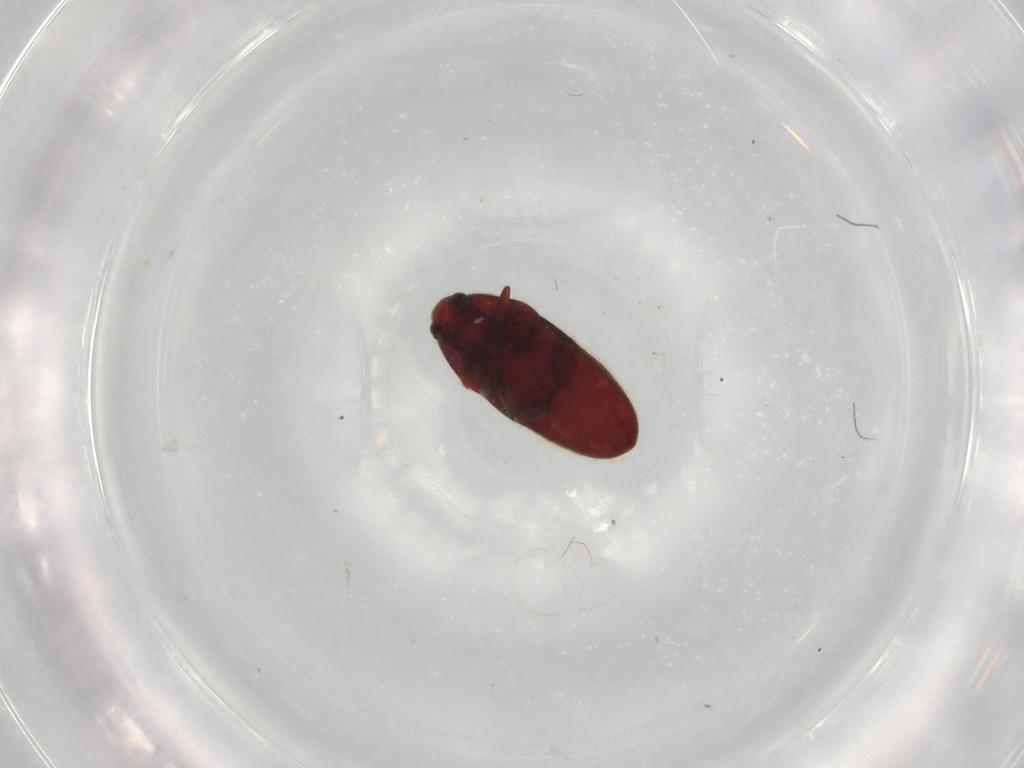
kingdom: Animalia
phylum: Arthropoda
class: Insecta
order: Coleoptera
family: Throscidae
